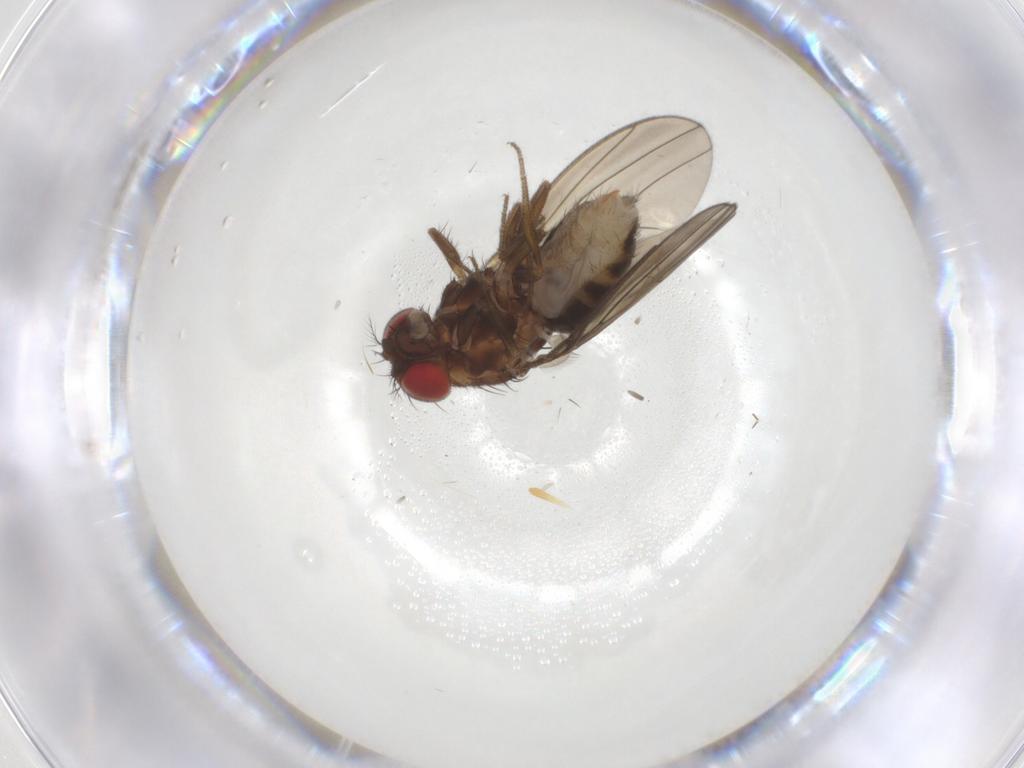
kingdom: Animalia
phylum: Arthropoda
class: Insecta
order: Diptera
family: Drosophilidae
